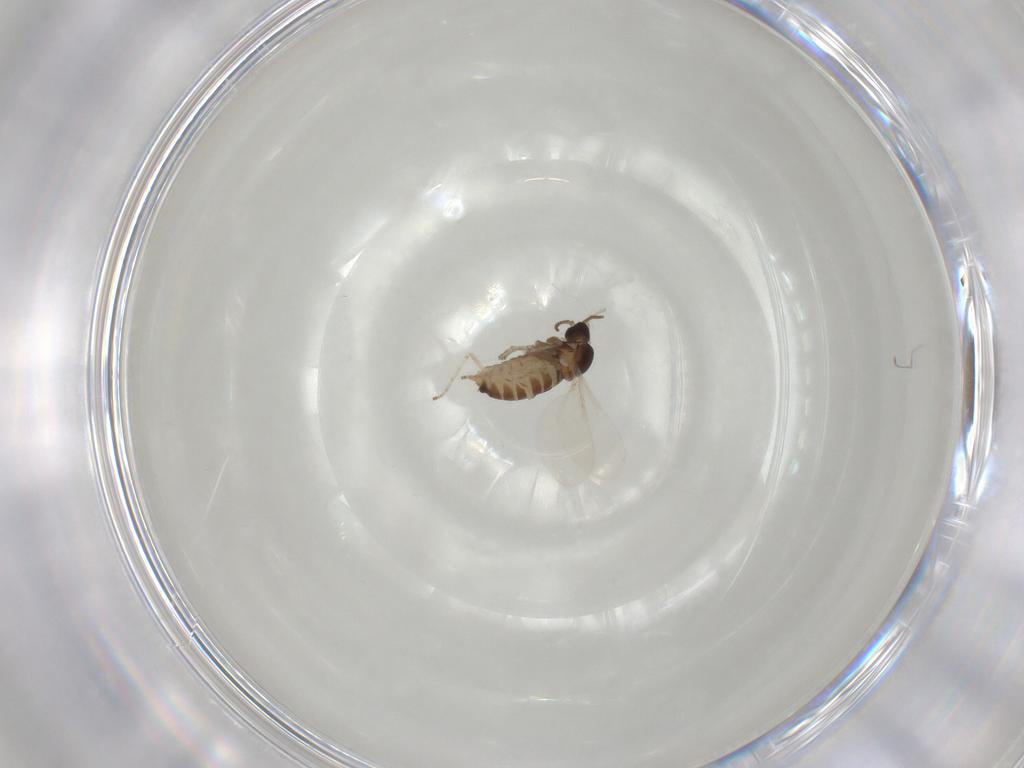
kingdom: Animalia
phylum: Arthropoda
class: Insecta
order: Diptera
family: Cecidomyiidae
